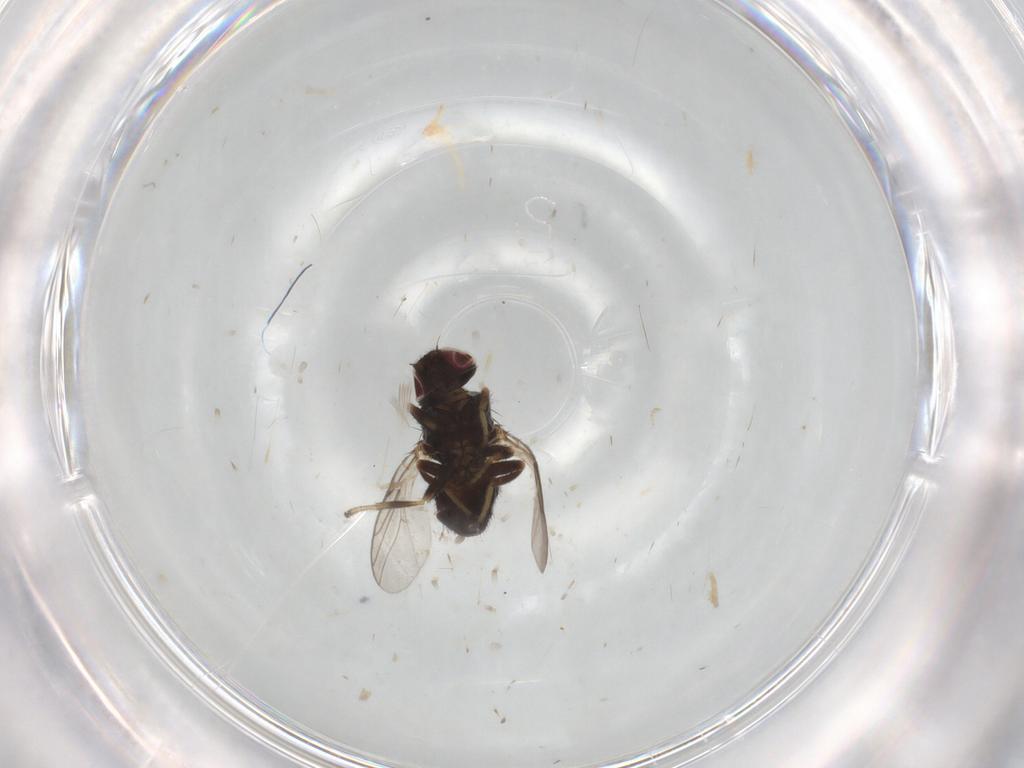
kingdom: Animalia
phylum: Arthropoda
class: Insecta
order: Diptera
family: Chloropidae
